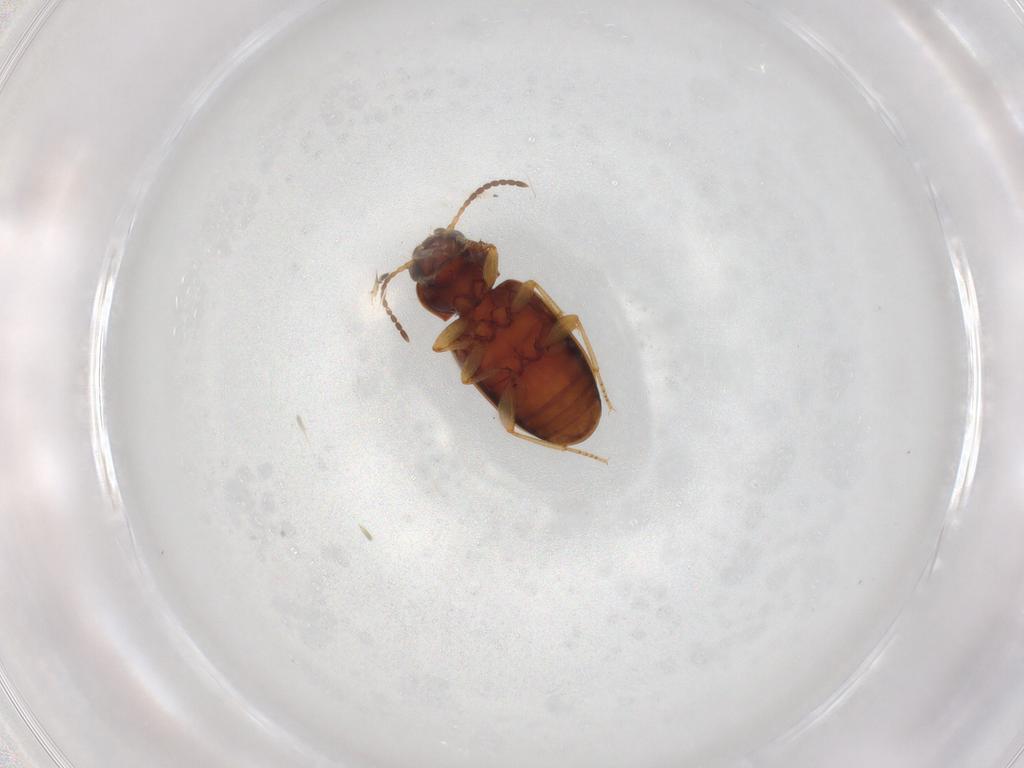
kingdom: Animalia
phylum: Arthropoda
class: Insecta
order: Coleoptera
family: Carabidae
